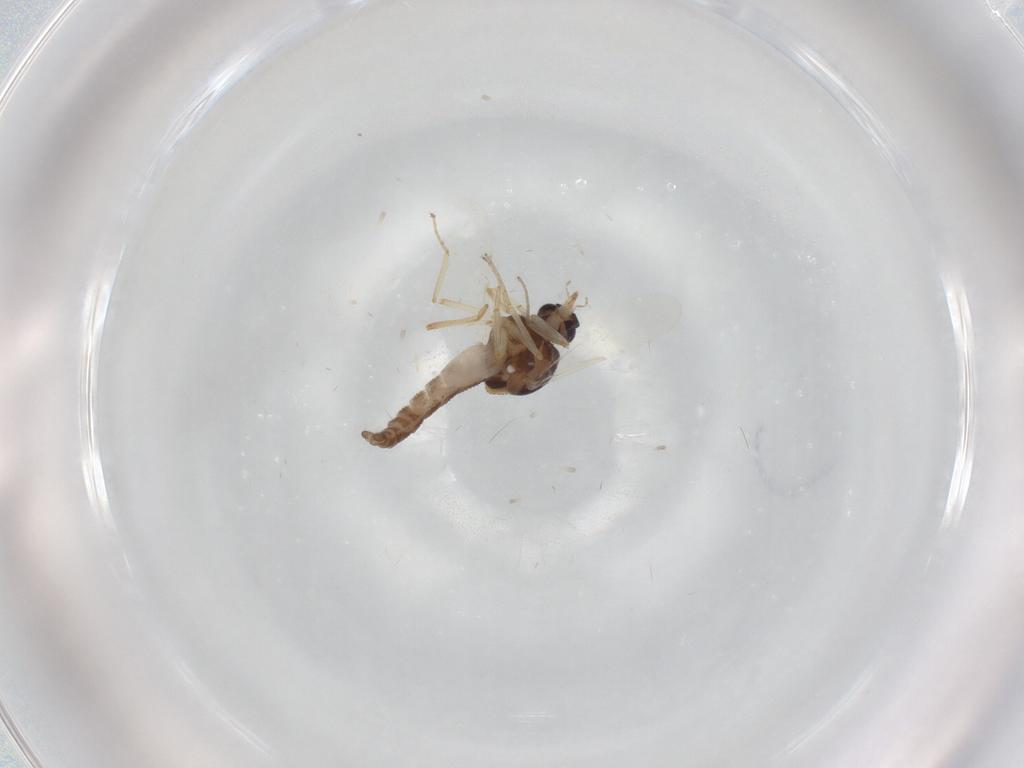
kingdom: Animalia
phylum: Arthropoda
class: Insecta
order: Diptera
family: Ceratopogonidae
